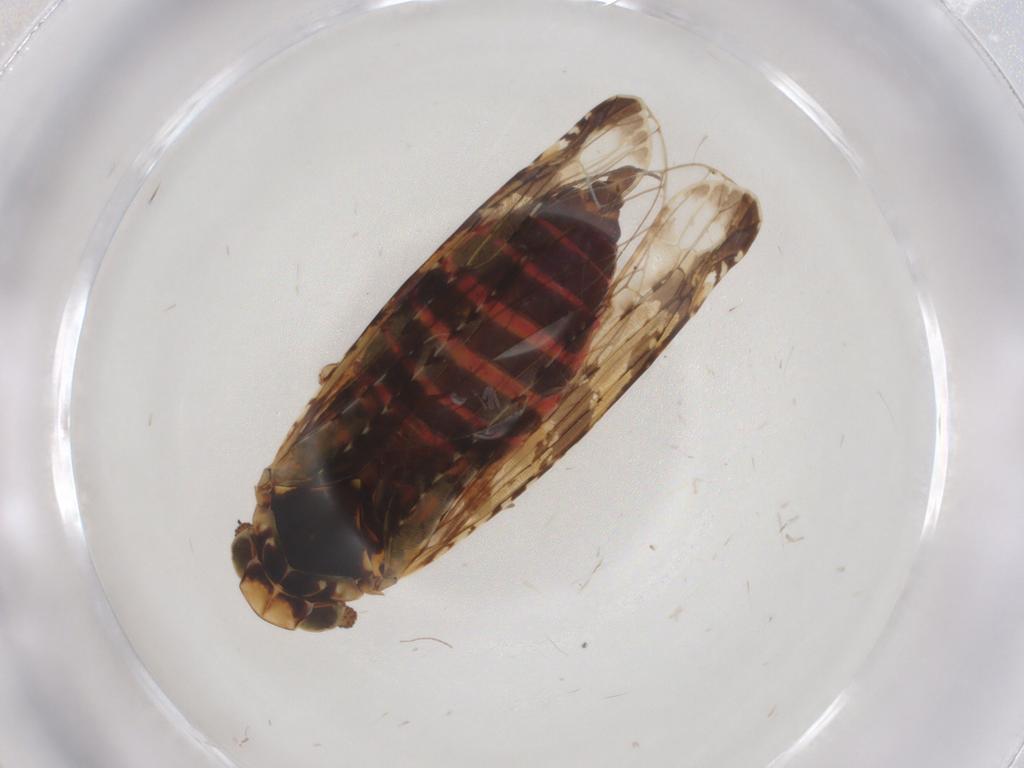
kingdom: Animalia
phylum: Arthropoda
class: Insecta
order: Hemiptera
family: Achilidae
